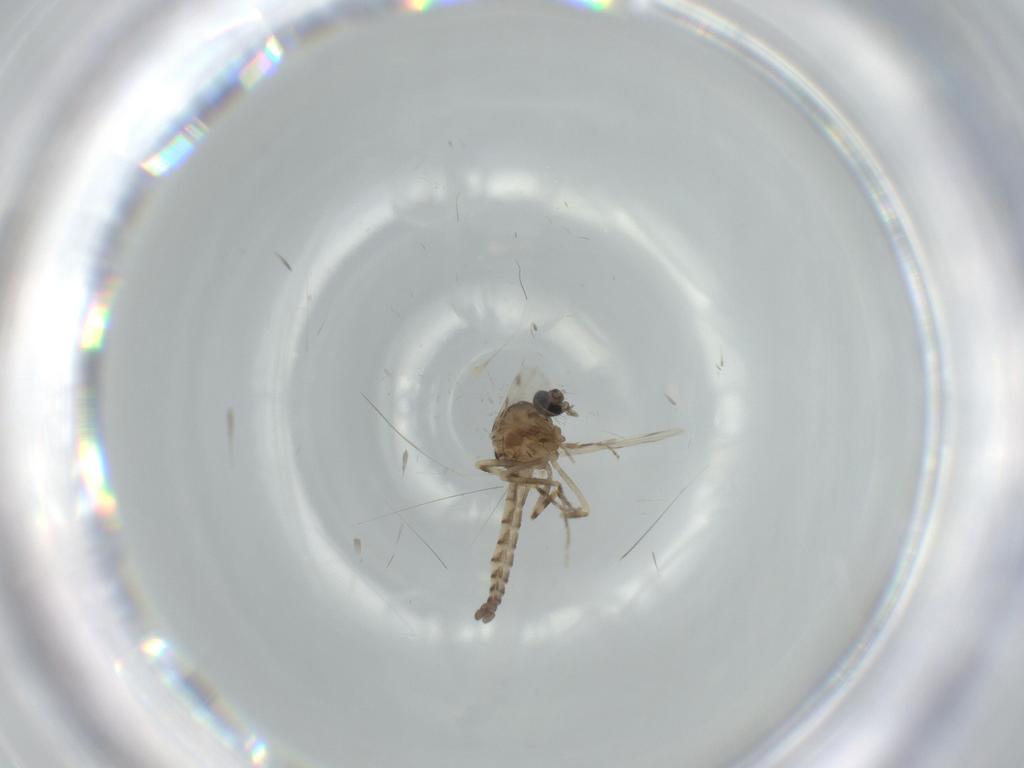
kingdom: Animalia
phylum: Arthropoda
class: Insecta
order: Diptera
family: Ceratopogonidae
